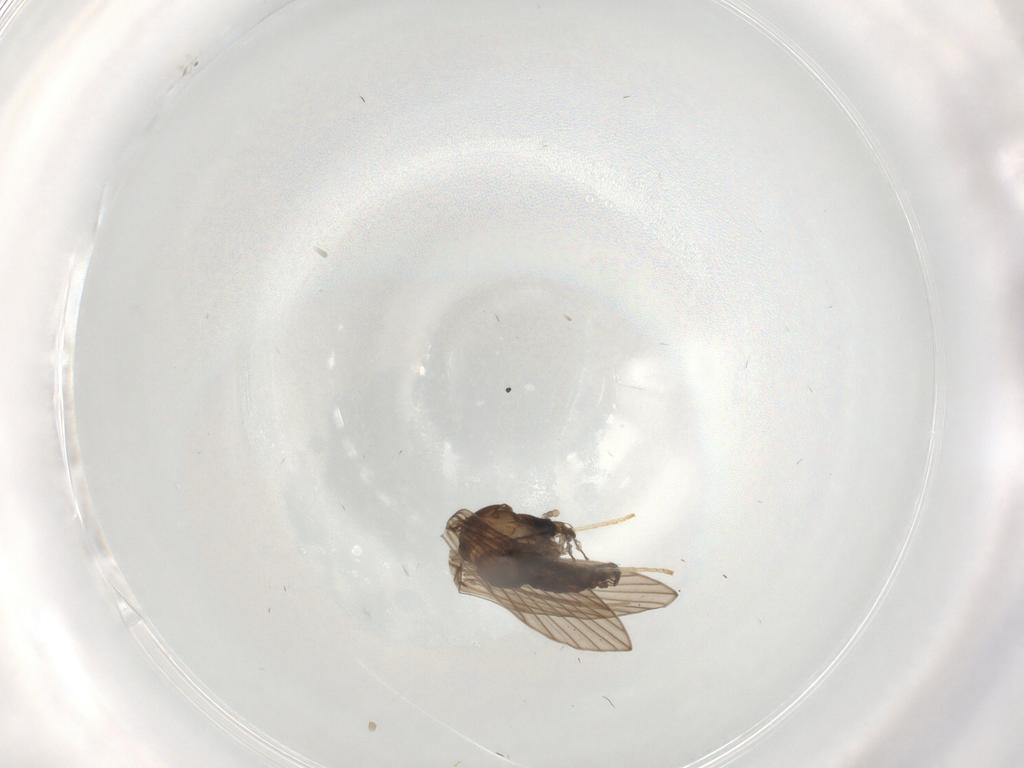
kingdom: Animalia
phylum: Arthropoda
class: Insecta
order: Diptera
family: Psychodidae
